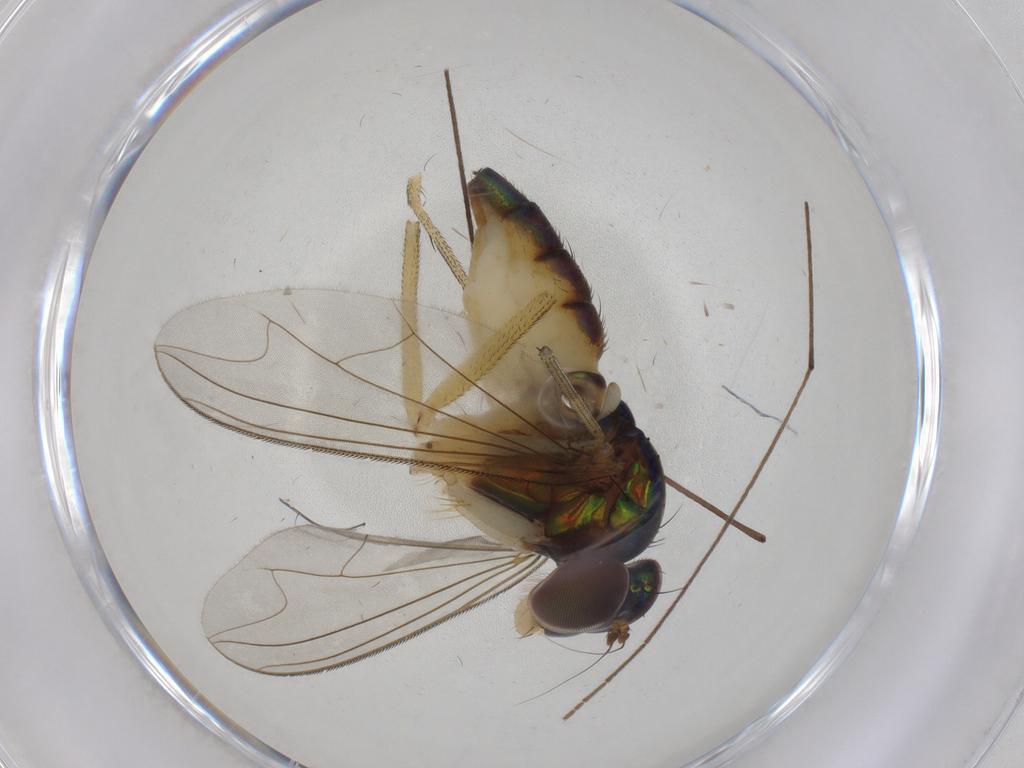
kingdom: Animalia
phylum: Arthropoda
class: Insecta
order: Diptera
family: Dolichopodidae
